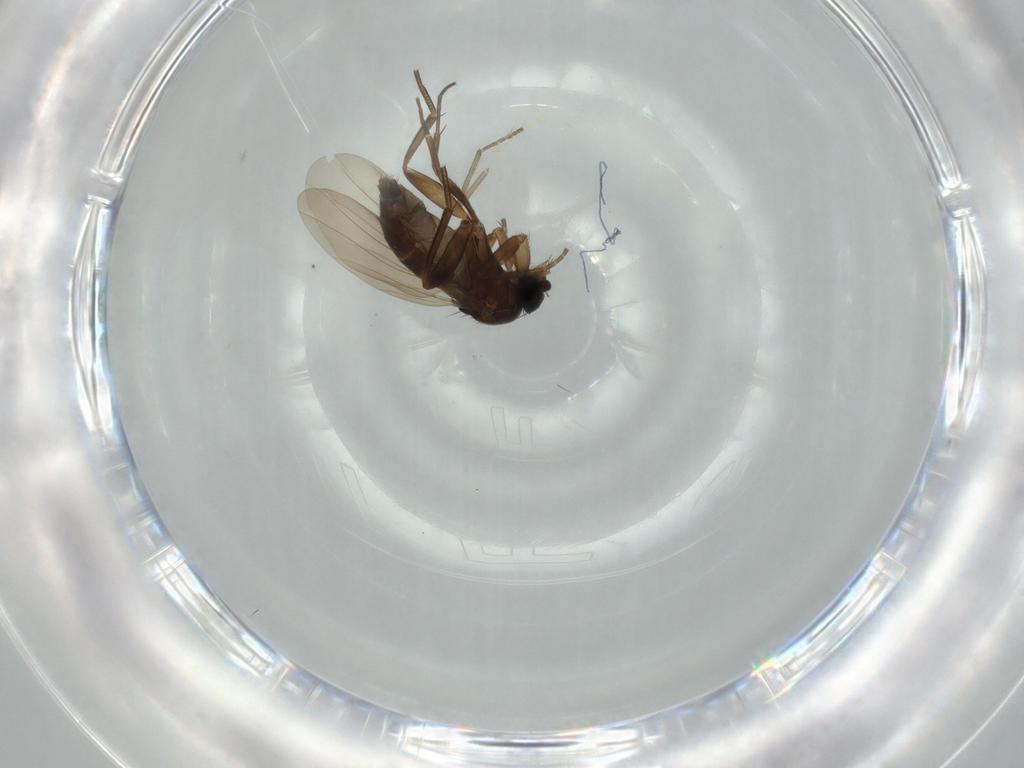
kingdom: Animalia
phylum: Arthropoda
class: Insecta
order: Diptera
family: Phoridae
